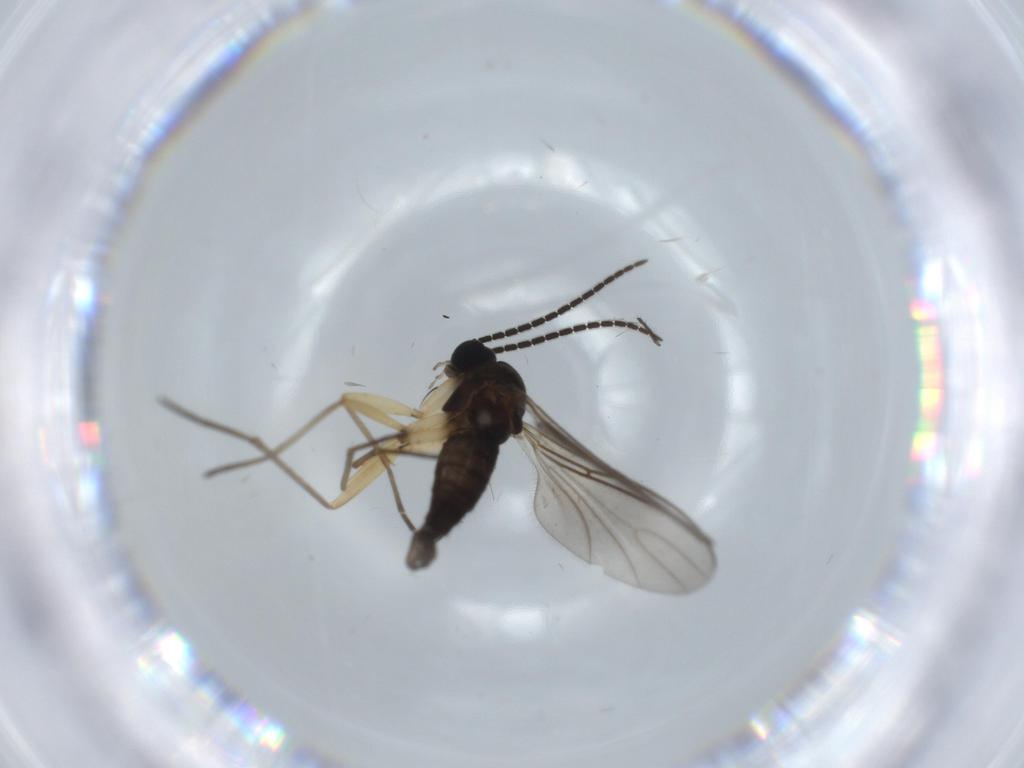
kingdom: Animalia
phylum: Arthropoda
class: Insecta
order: Diptera
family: Sciaridae
